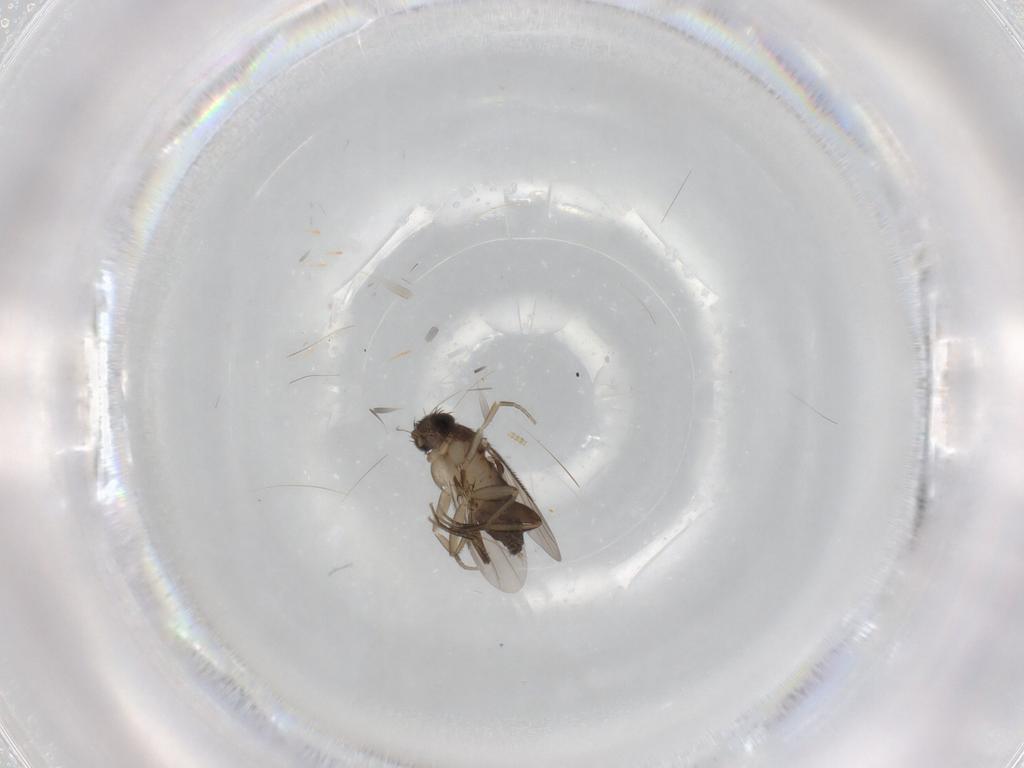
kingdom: Animalia
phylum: Arthropoda
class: Insecta
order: Diptera
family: Phoridae
